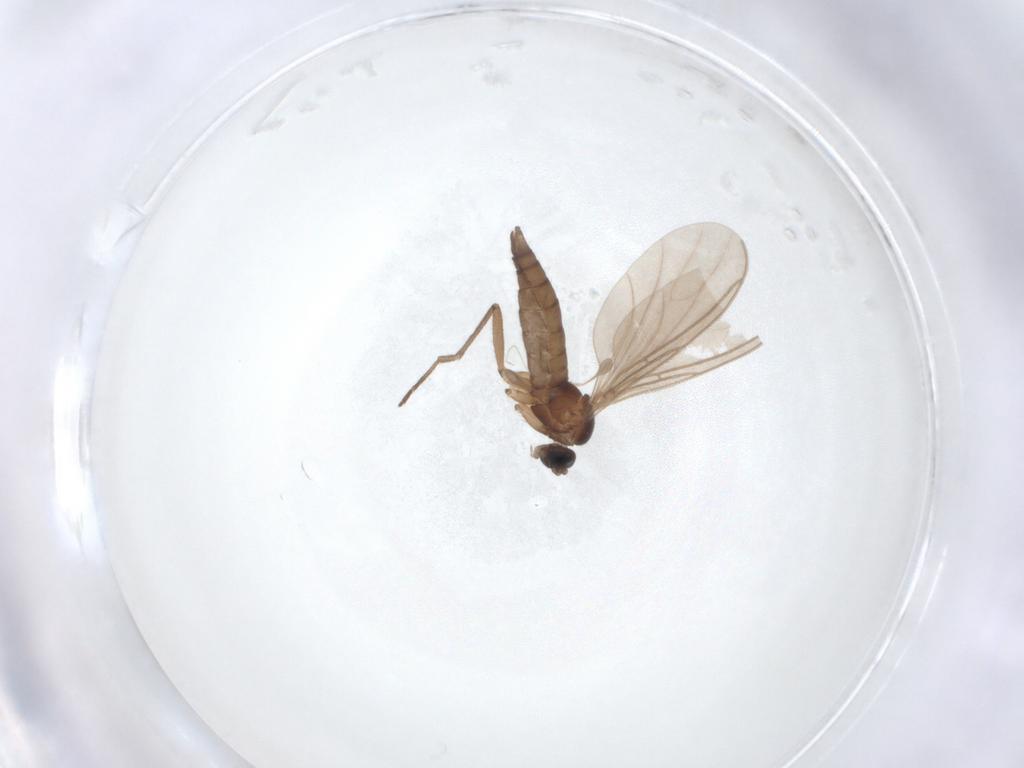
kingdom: Animalia
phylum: Arthropoda
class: Insecta
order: Diptera
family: Sciaridae
